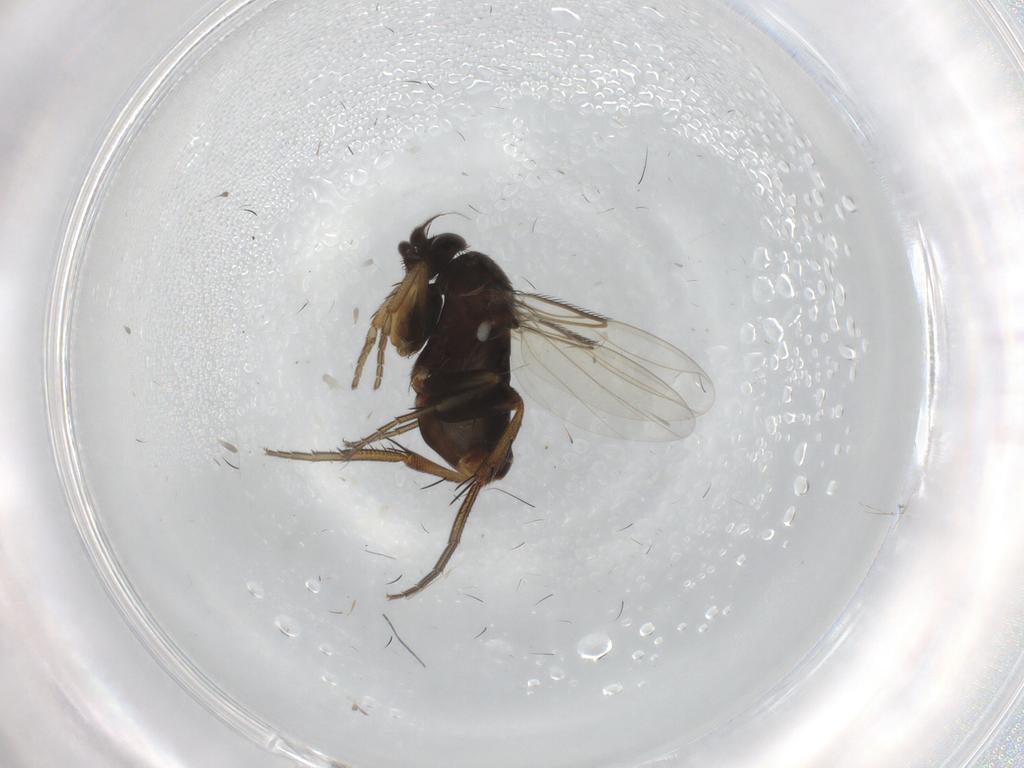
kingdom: Animalia
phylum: Arthropoda
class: Insecta
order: Diptera
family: Phoridae
